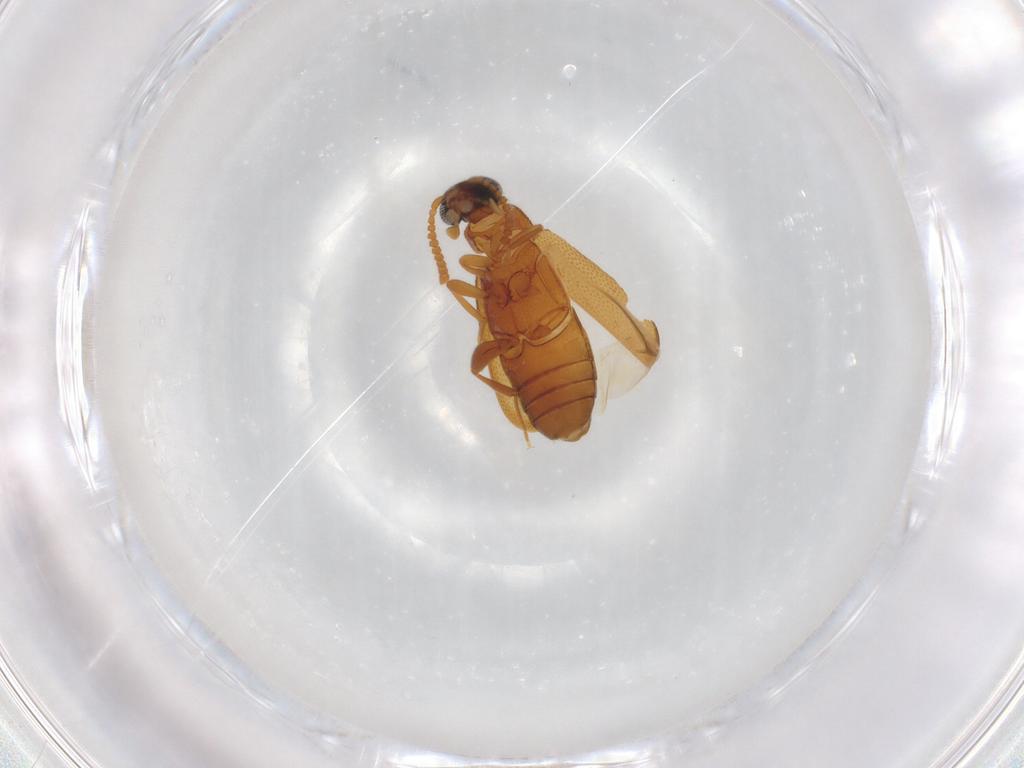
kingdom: Animalia
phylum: Arthropoda
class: Insecta
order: Coleoptera
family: Aderidae
